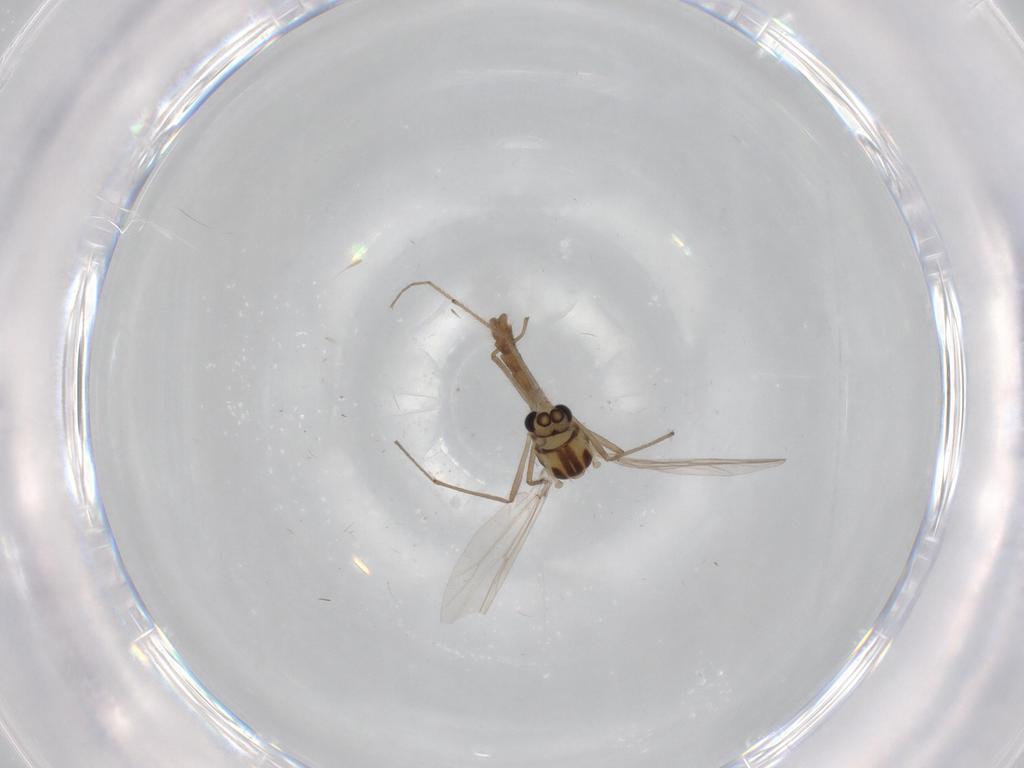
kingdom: Animalia
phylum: Arthropoda
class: Insecta
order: Diptera
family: Chironomidae
